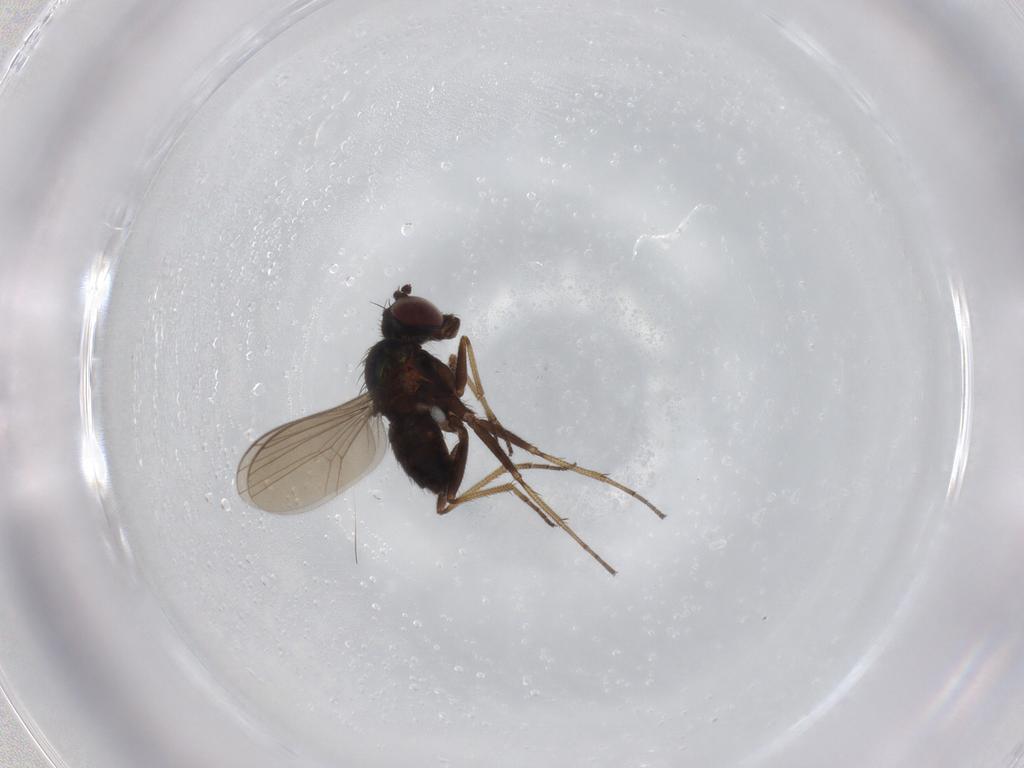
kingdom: Animalia
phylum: Arthropoda
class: Insecta
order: Diptera
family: Dolichopodidae
